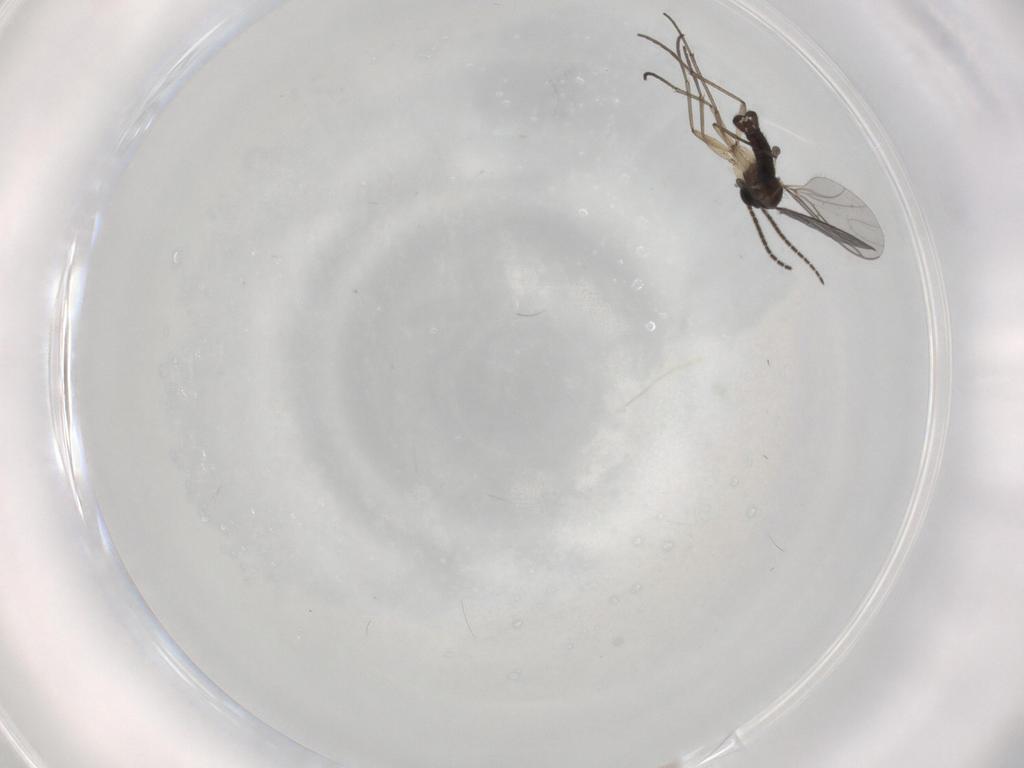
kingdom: Animalia
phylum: Arthropoda
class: Insecta
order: Diptera
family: Sciaridae
